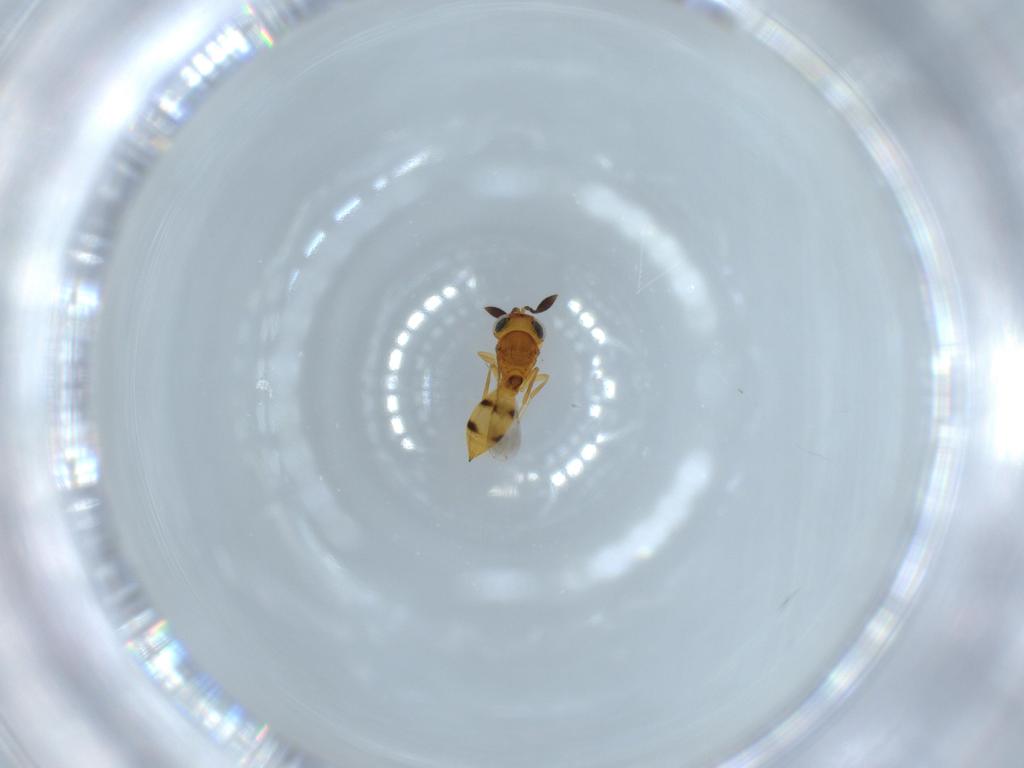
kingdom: Animalia
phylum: Arthropoda
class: Insecta
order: Hymenoptera
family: Scelionidae
